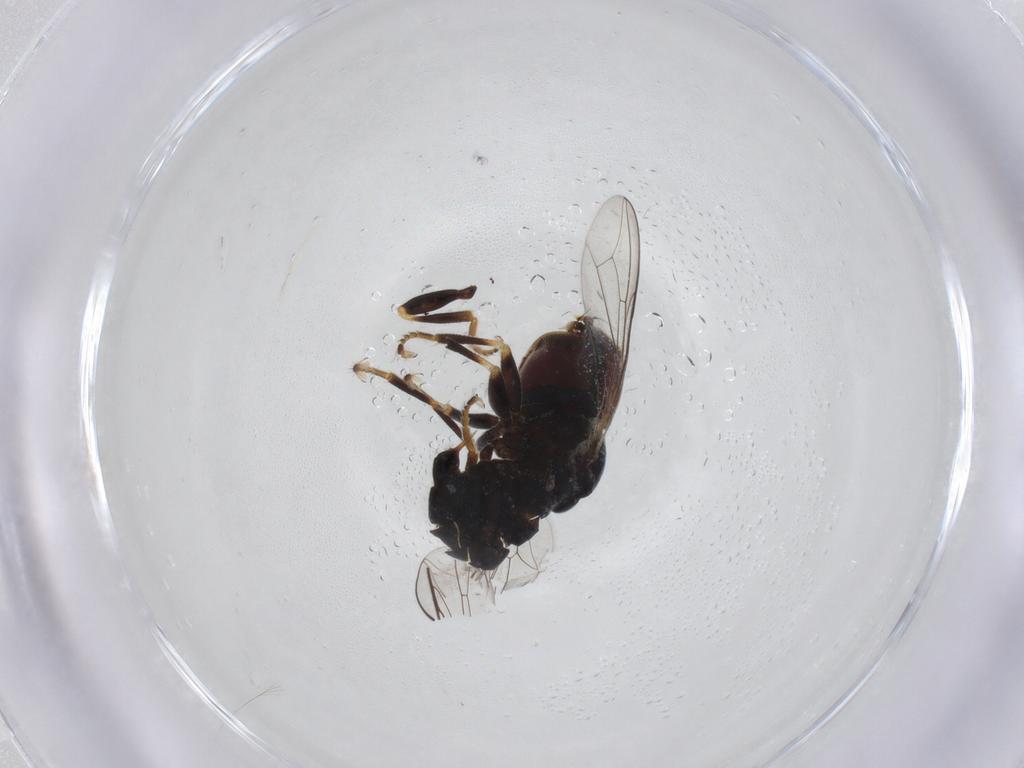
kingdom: Animalia
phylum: Arthropoda
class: Insecta
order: Diptera
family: Pipunculidae
